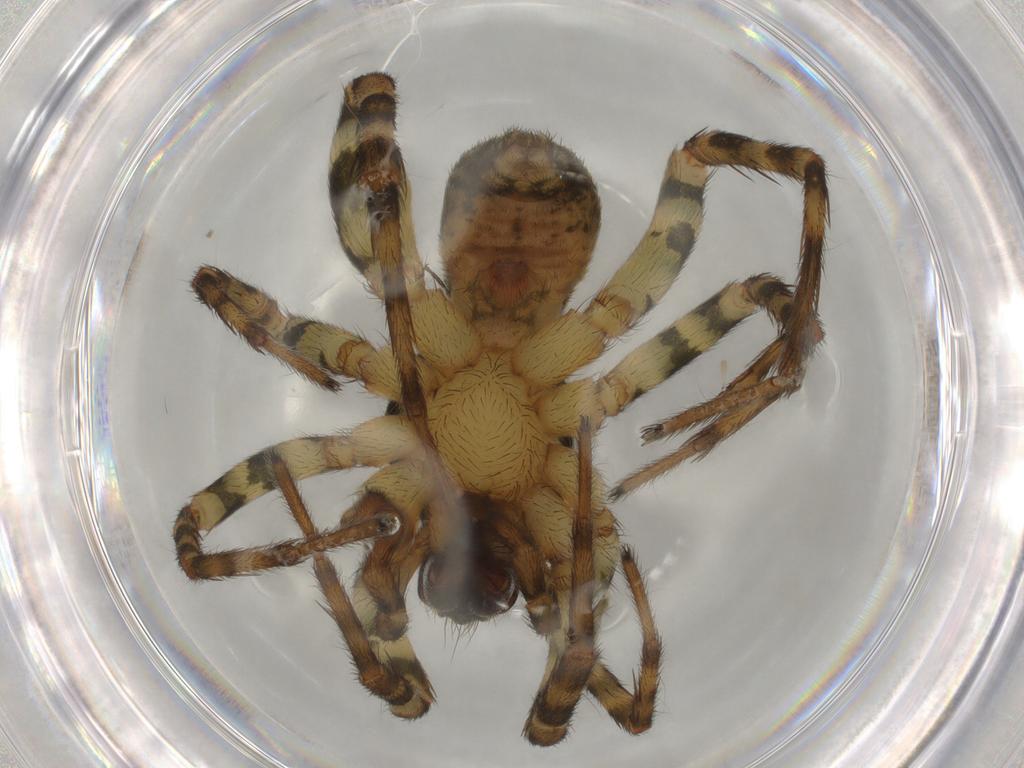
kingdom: Animalia
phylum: Arthropoda
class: Arachnida
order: Araneae
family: Lycosidae
